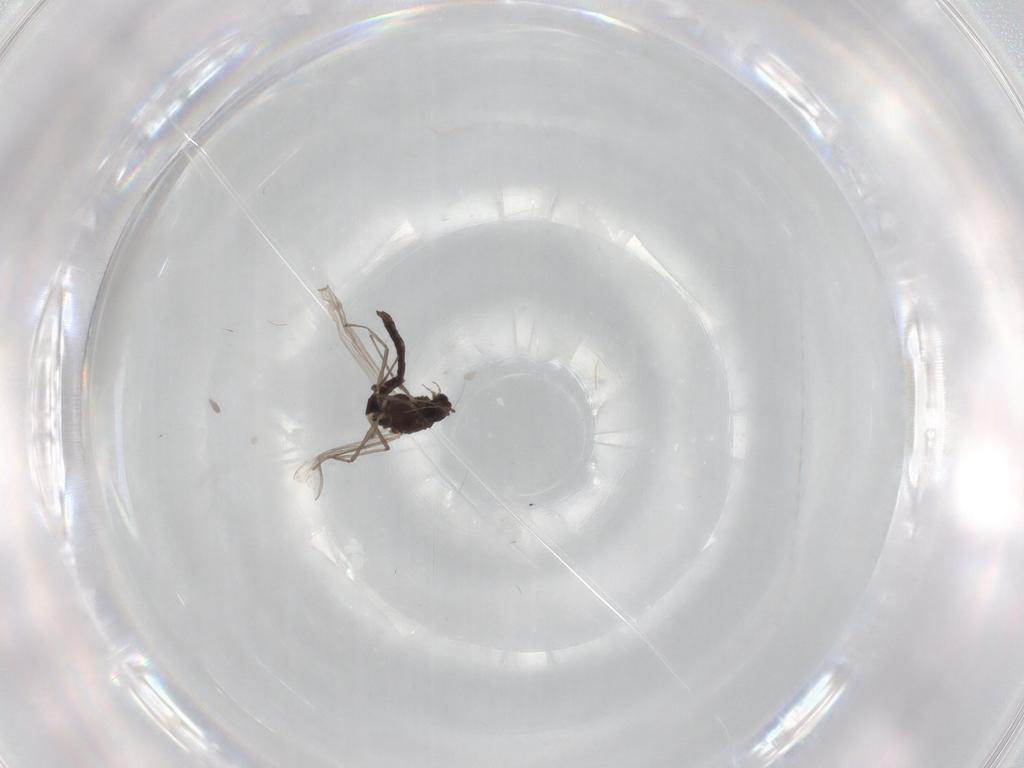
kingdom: Animalia
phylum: Arthropoda
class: Insecta
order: Diptera
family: Chironomidae
